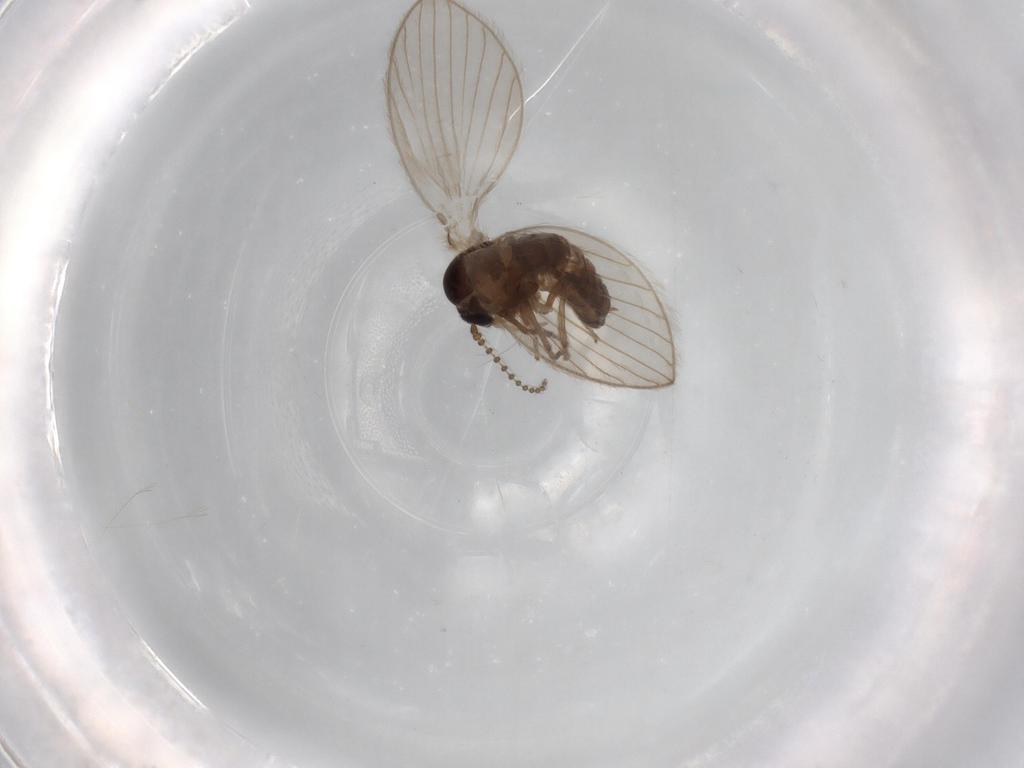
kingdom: Animalia
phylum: Arthropoda
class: Insecta
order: Diptera
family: Psychodidae
